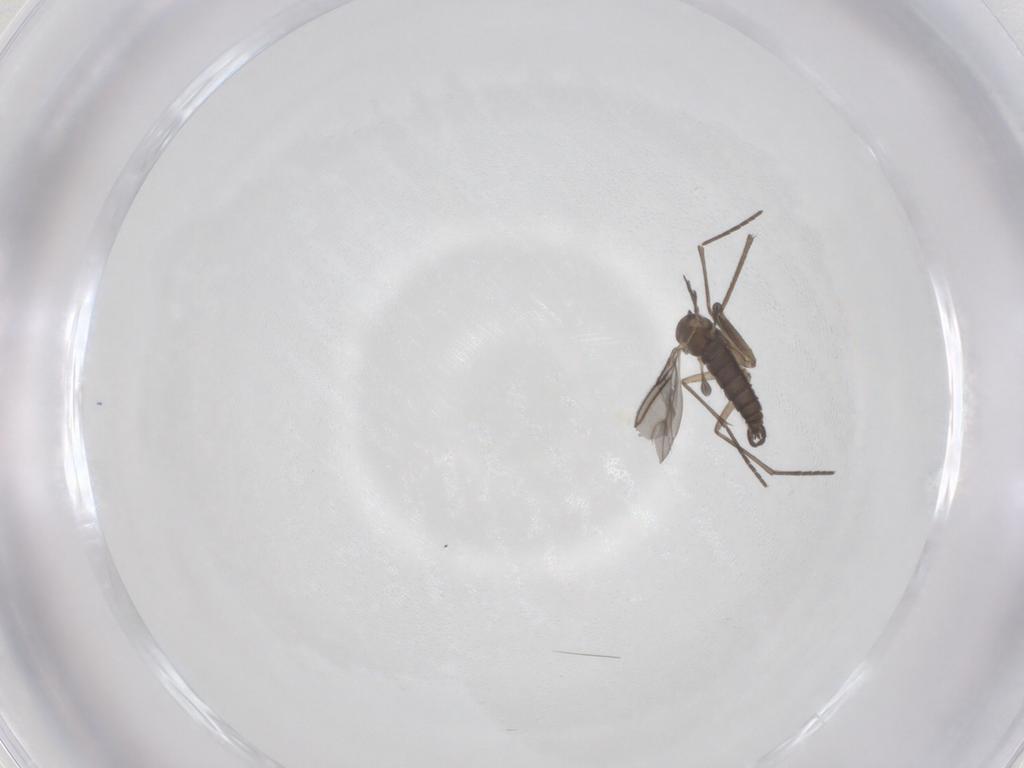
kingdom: Animalia
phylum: Arthropoda
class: Insecta
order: Diptera
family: Sciaridae
